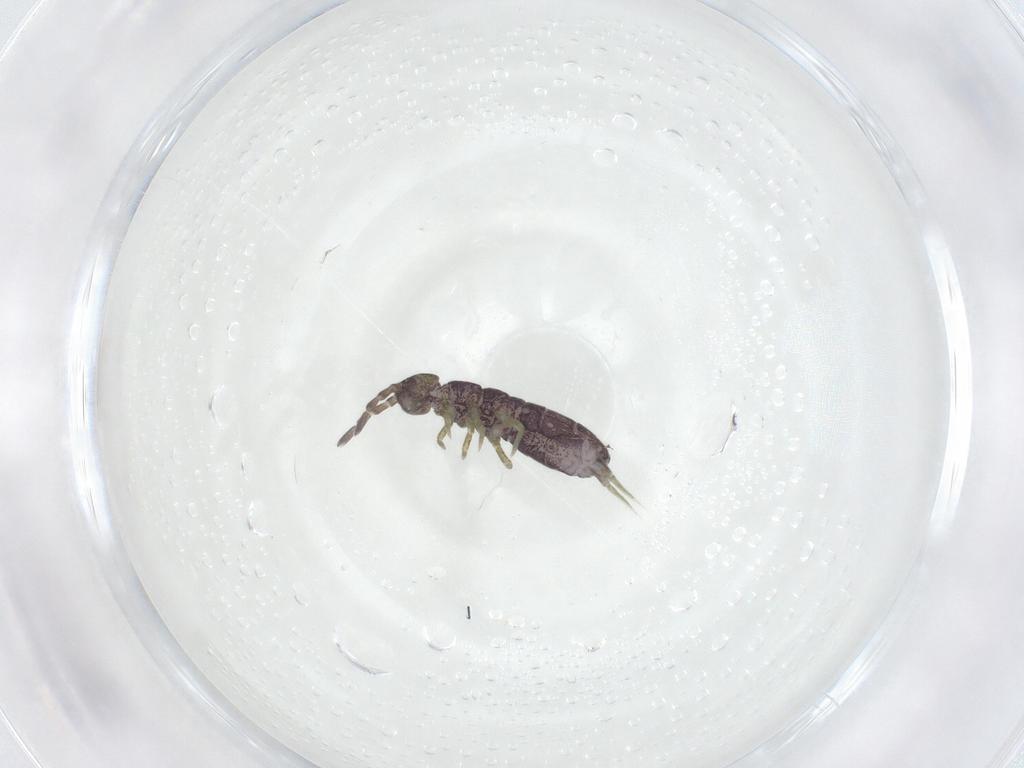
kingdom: Animalia
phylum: Arthropoda
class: Collembola
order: Entomobryomorpha
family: Isotomidae
